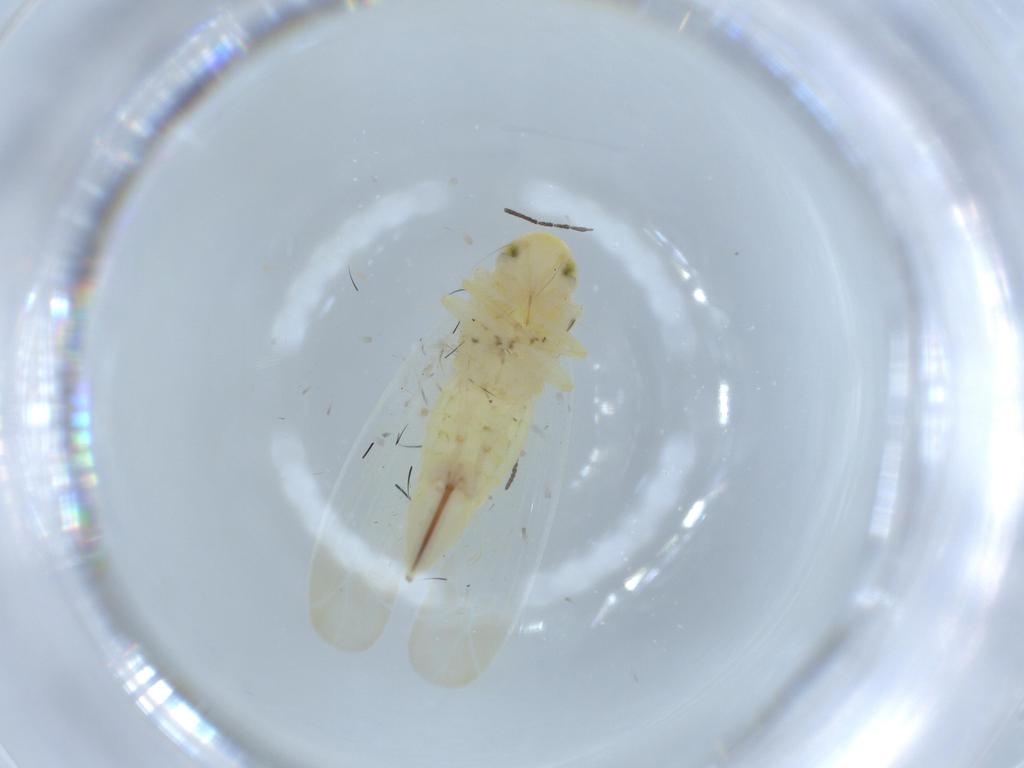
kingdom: Animalia
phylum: Arthropoda
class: Insecta
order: Hemiptera
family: Cicadellidae
